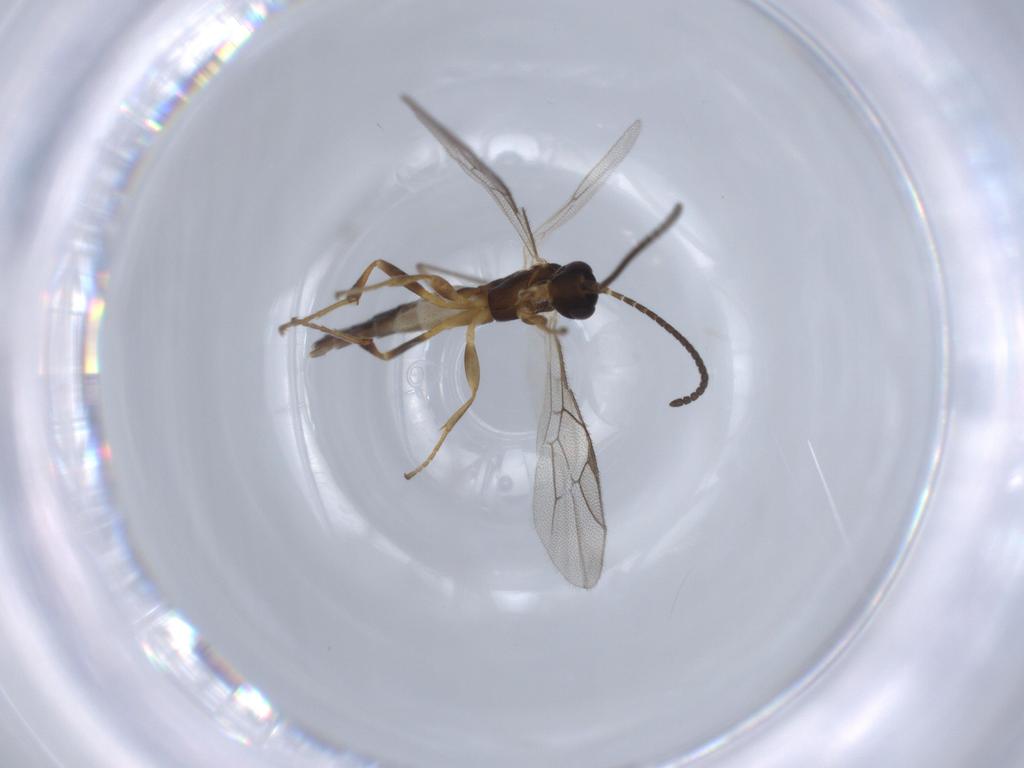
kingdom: Animalia
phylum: Arthropoda
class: Insecta
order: Hymenoptera
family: Ichneumonidae
